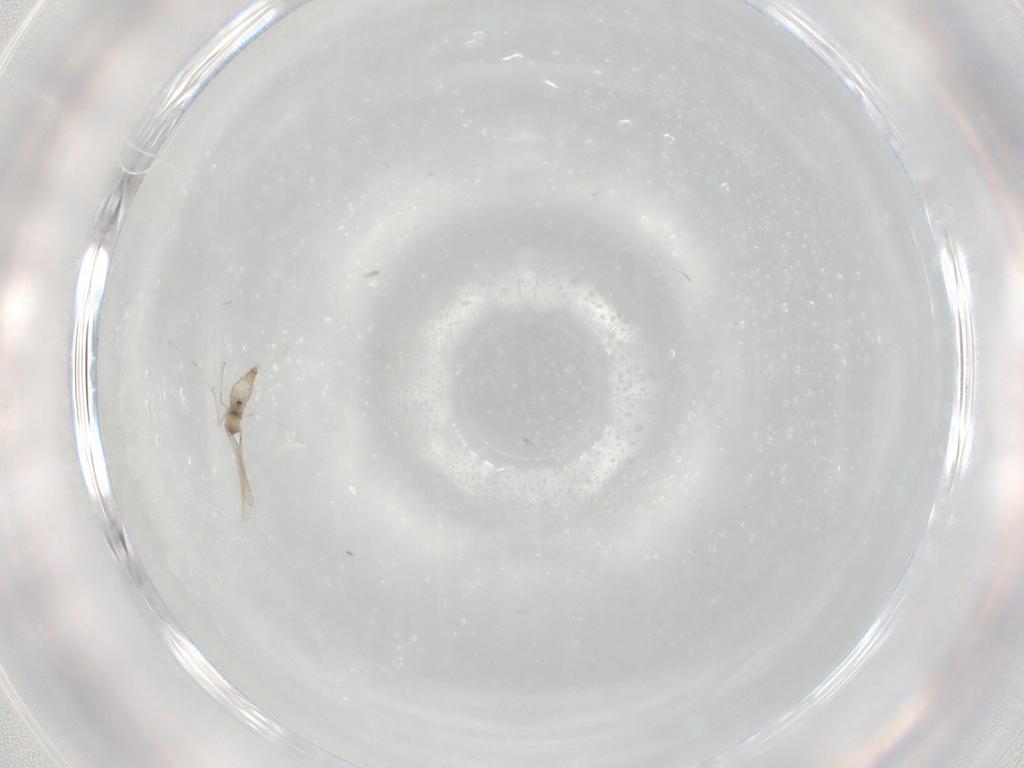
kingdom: Animalia
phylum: Arthropoda
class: Insecta
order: Diptera
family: Cecidomyiidae
